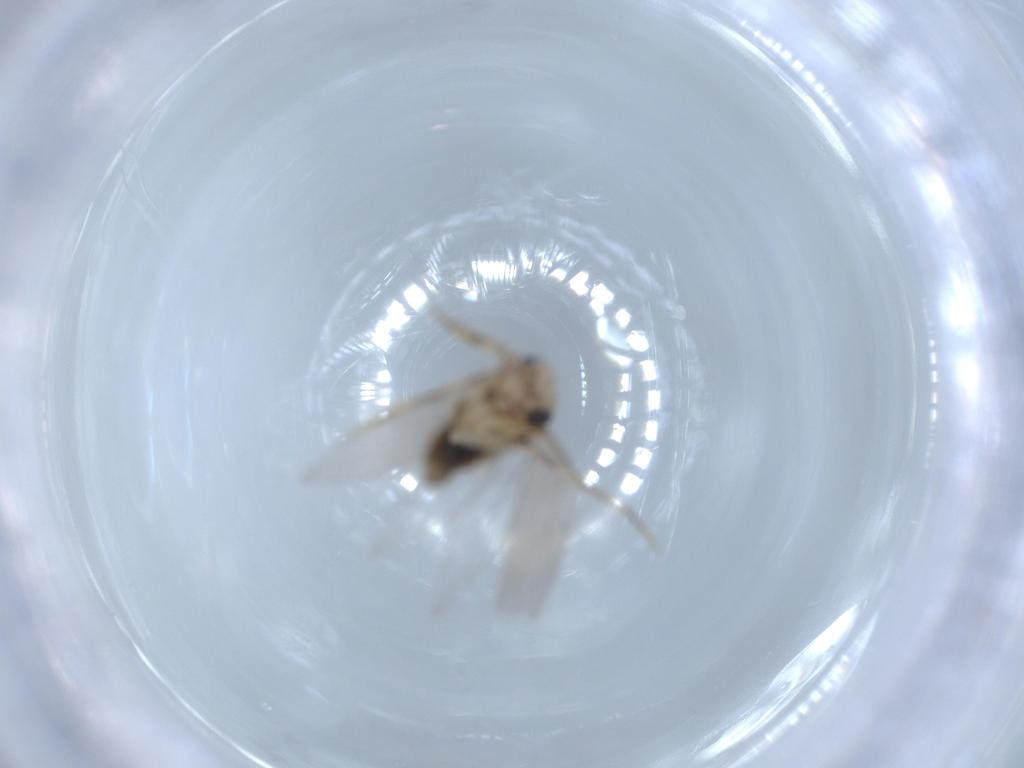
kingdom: Animalia
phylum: Arthropoda
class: Insecta
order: Psocodea
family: Lepidopsocidae
